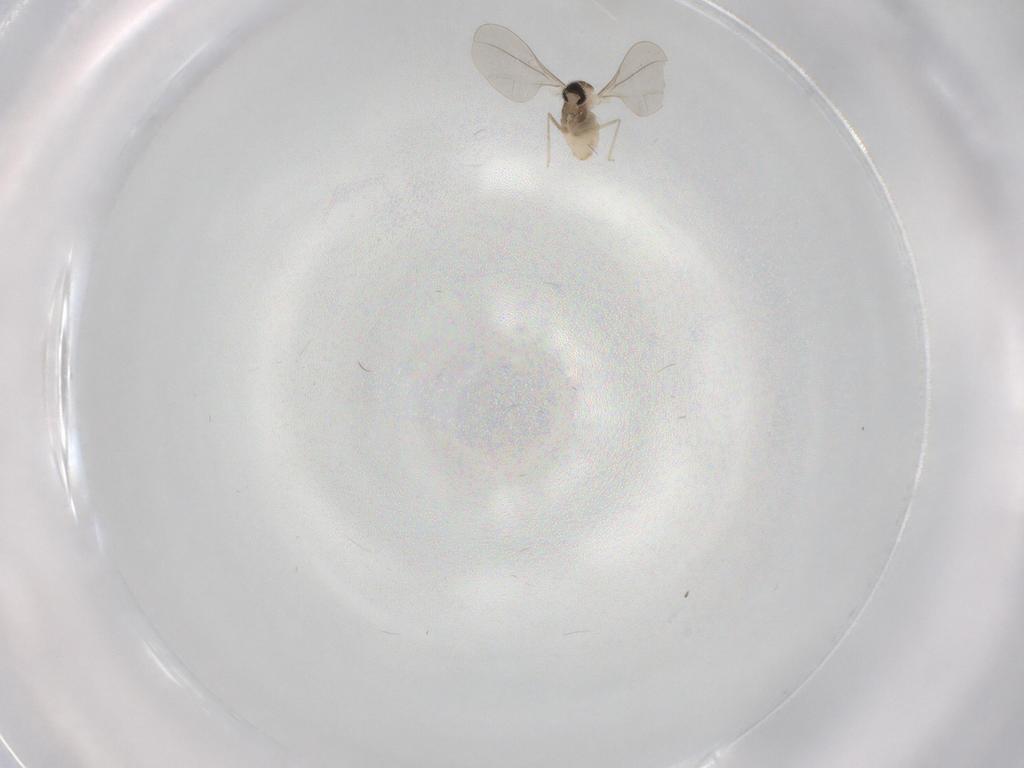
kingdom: Animalia
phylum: Arthropoda
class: Insecta
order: Diptera
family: Cecidomyiidae
